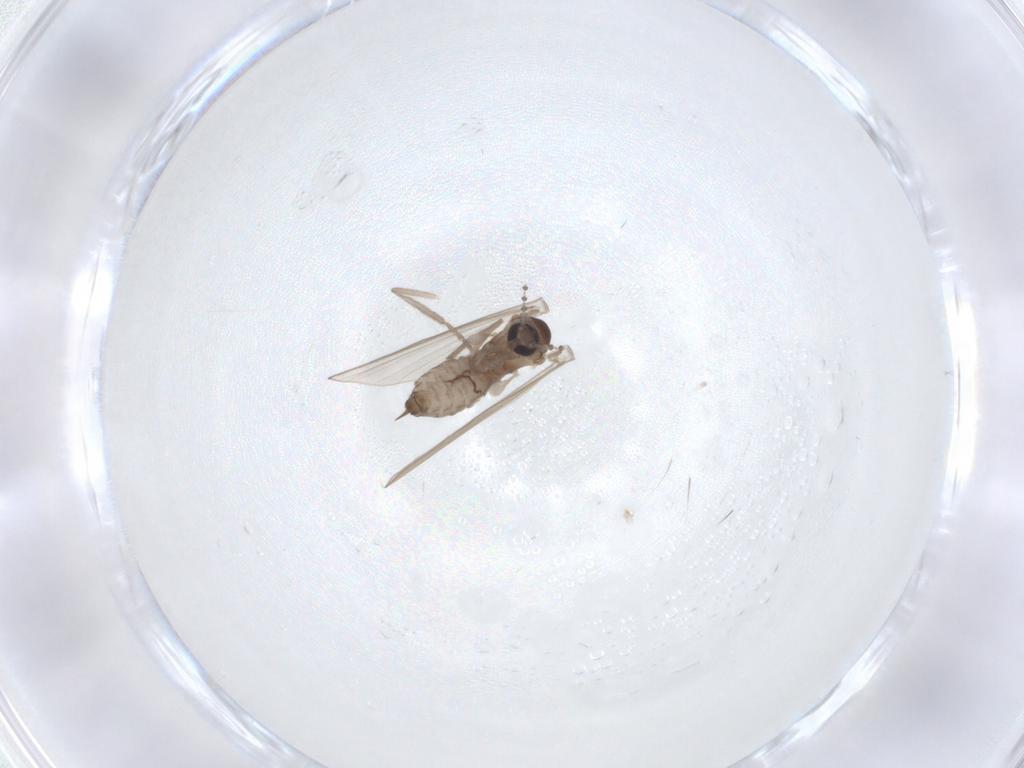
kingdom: Animalia
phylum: Arthropoda
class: Insecta
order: Diptera
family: Psychodidae
